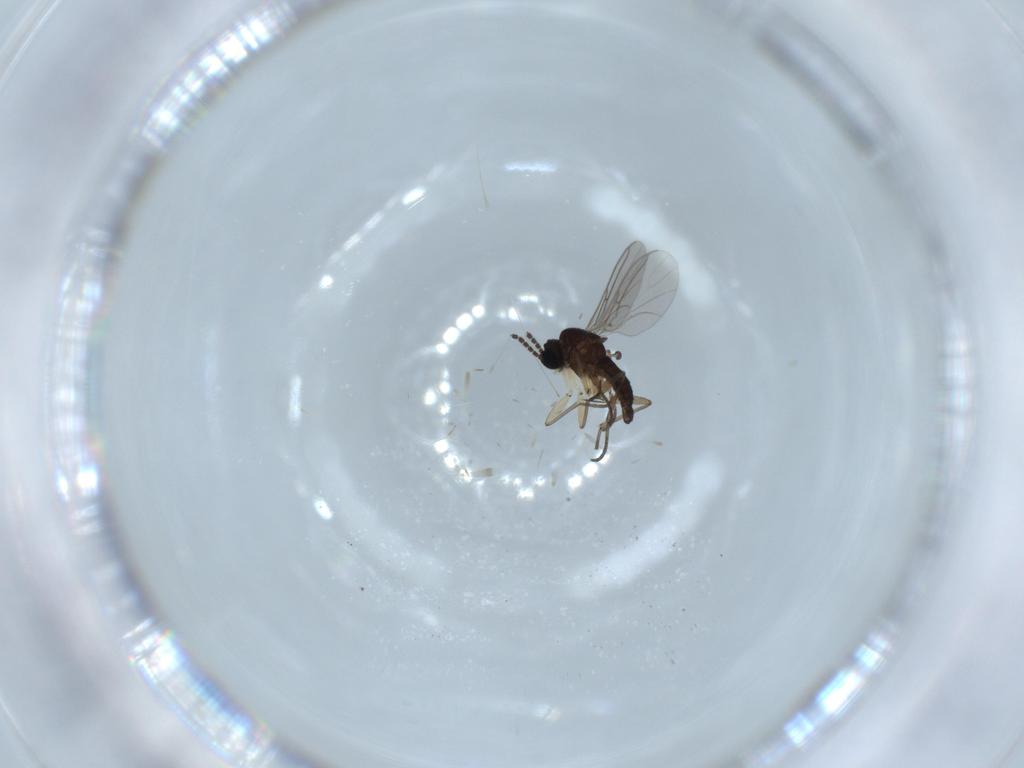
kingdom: Animalia
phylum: Arthropoda
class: Insecta
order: Diptera
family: Sciaridae
